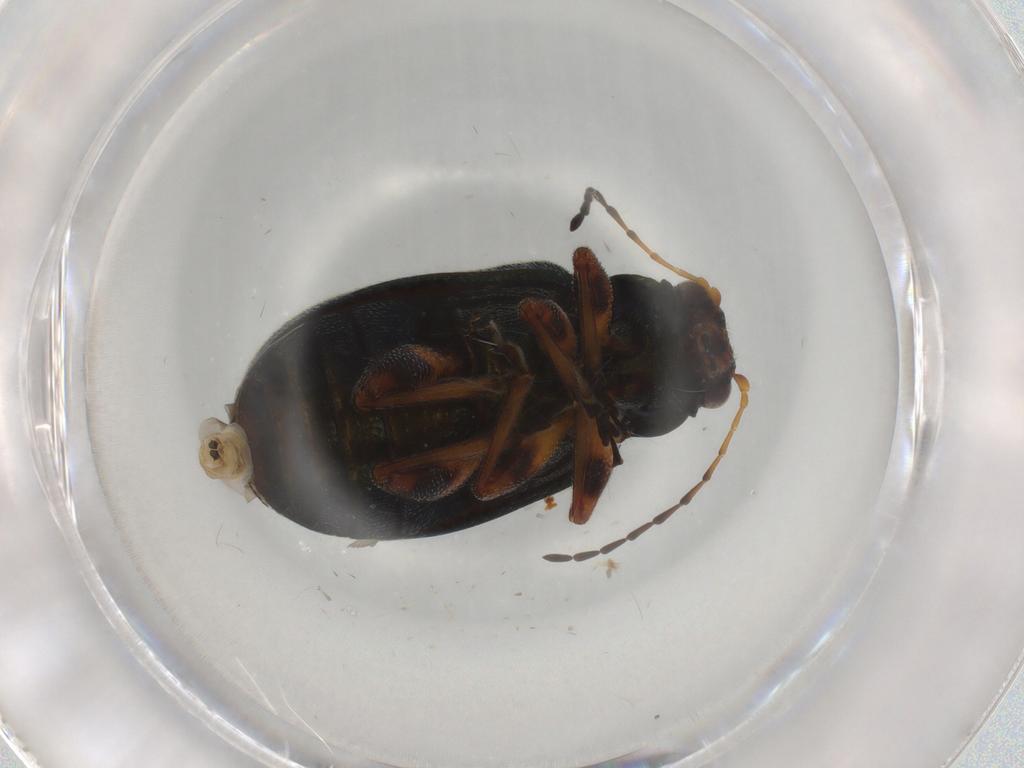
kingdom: Animalia
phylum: Arthropoda
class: Insecta
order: Coleoptera
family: Chrysomelidae
